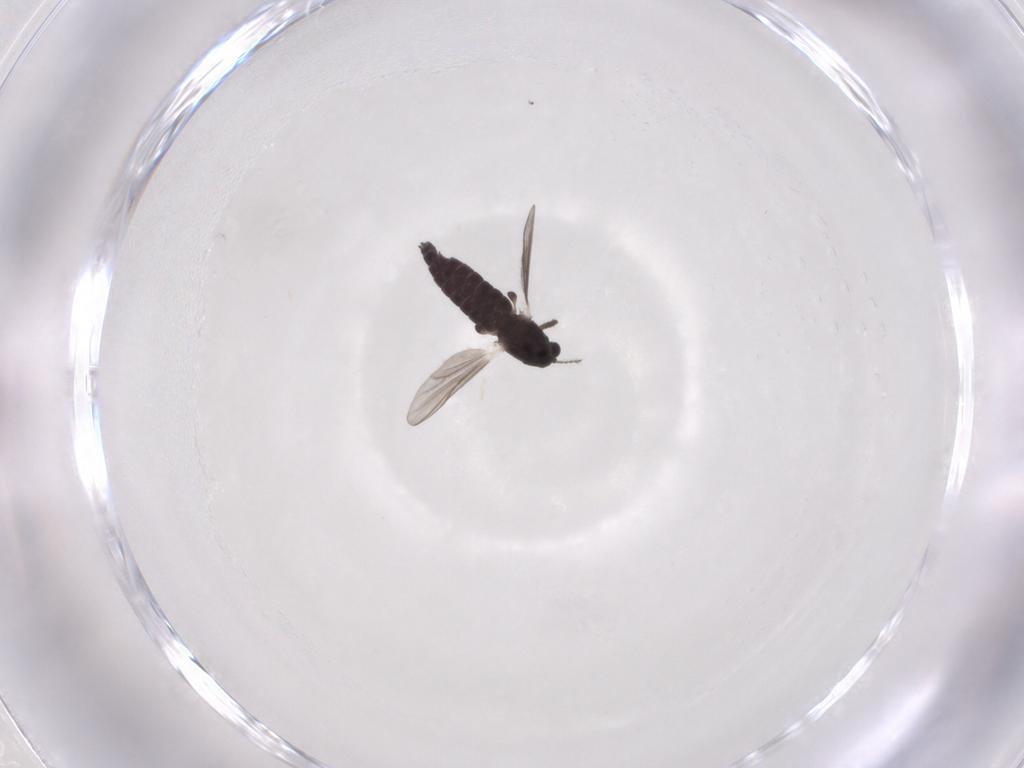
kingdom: Animalia
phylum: Arthropoda
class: Insecta
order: Diptera
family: Chironomidae
